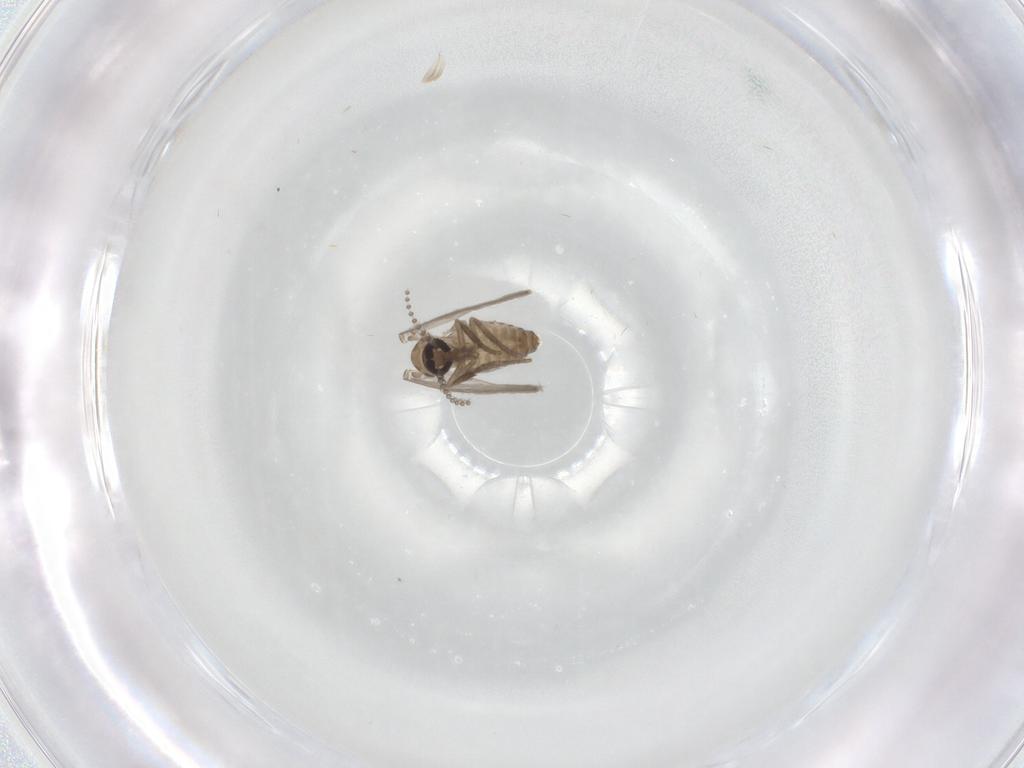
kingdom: Animalia
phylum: Arthropoda
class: Insecta
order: Diptera
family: Psychodidae
